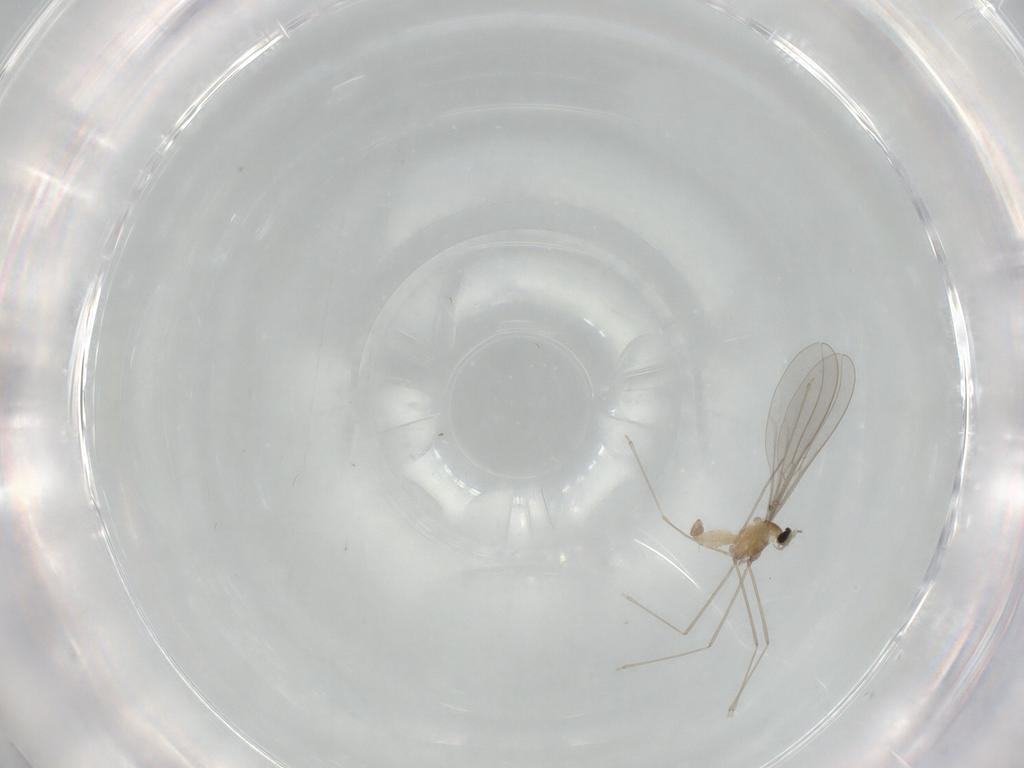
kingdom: Animalia
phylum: Arthropoda
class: Insecta
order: Diptera
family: Cecidomyiidae
